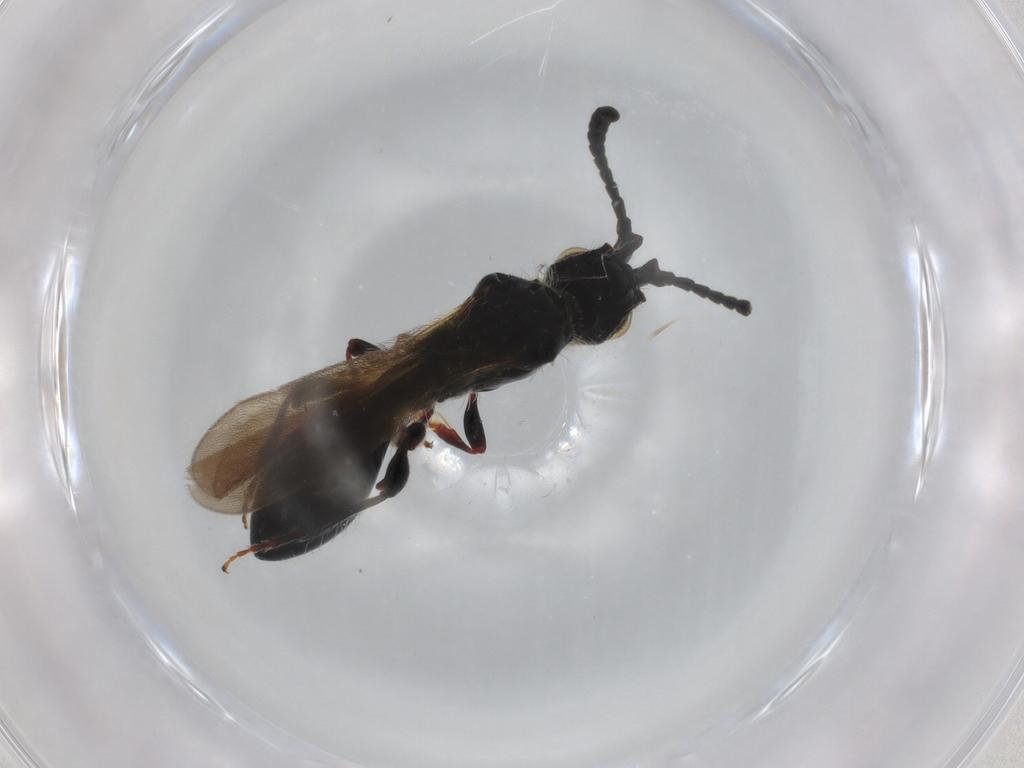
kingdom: Animalia
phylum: Arthropoda
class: Insecta
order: Hymenoptera
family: Diapriidae
